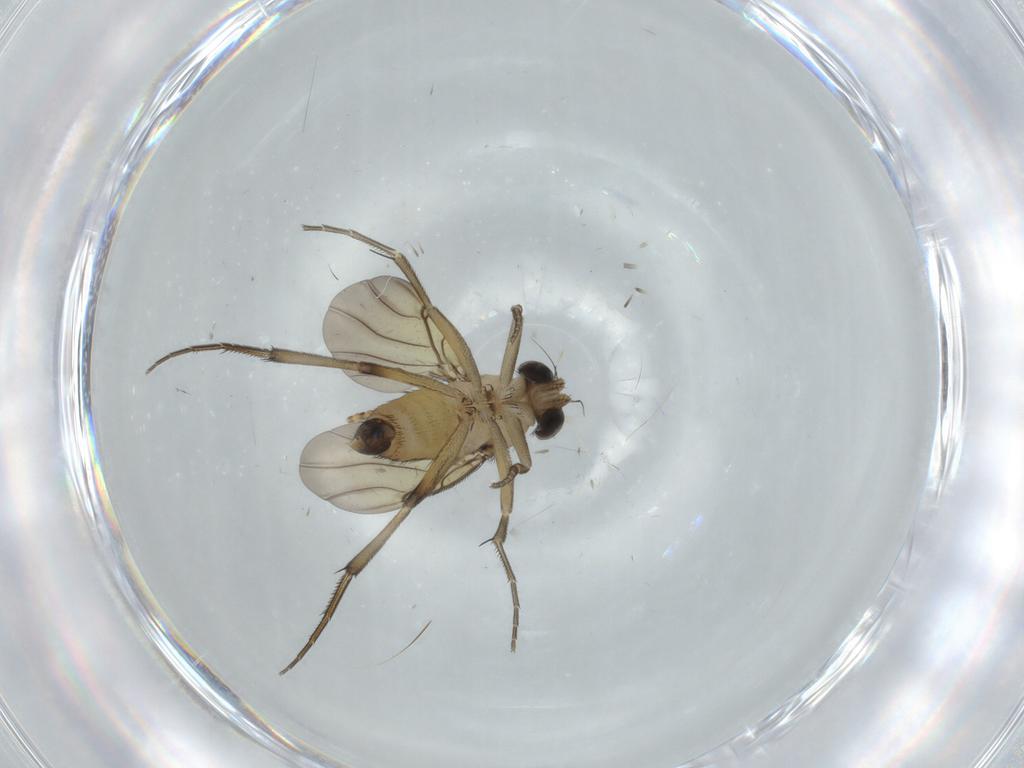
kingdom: Animalia
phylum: Arthropoda
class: Insecta
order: Diptera
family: Phoridae
